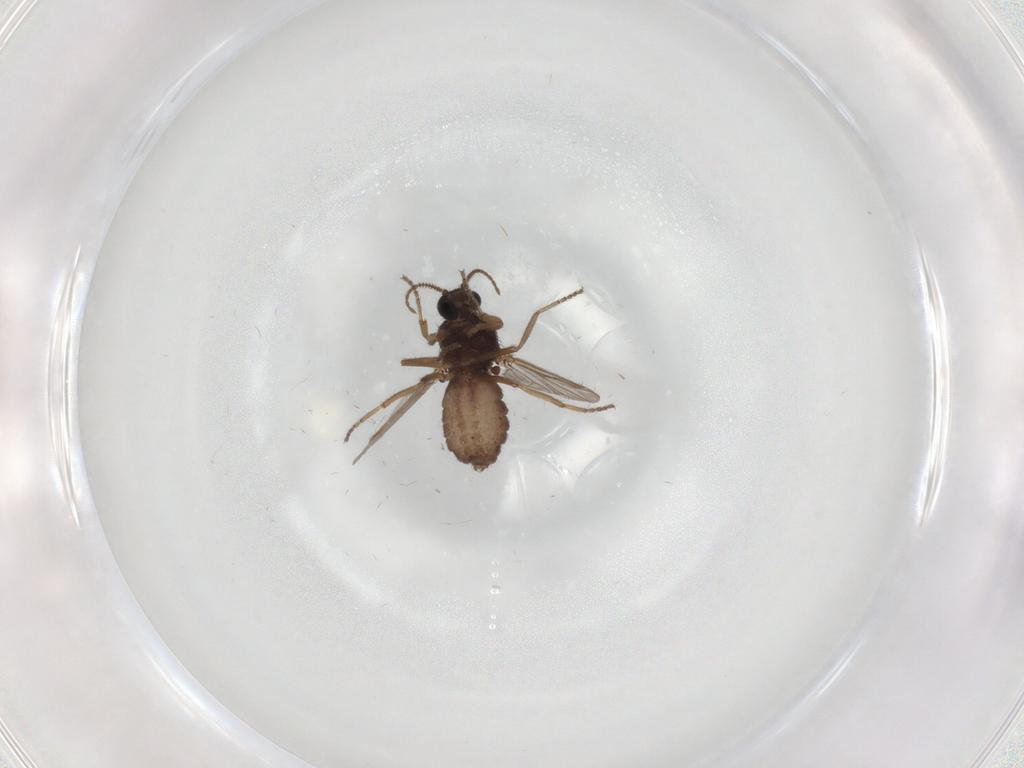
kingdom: Animalia
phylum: Arthropoda
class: Insecta
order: Diptera
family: Ceratopogonidae
